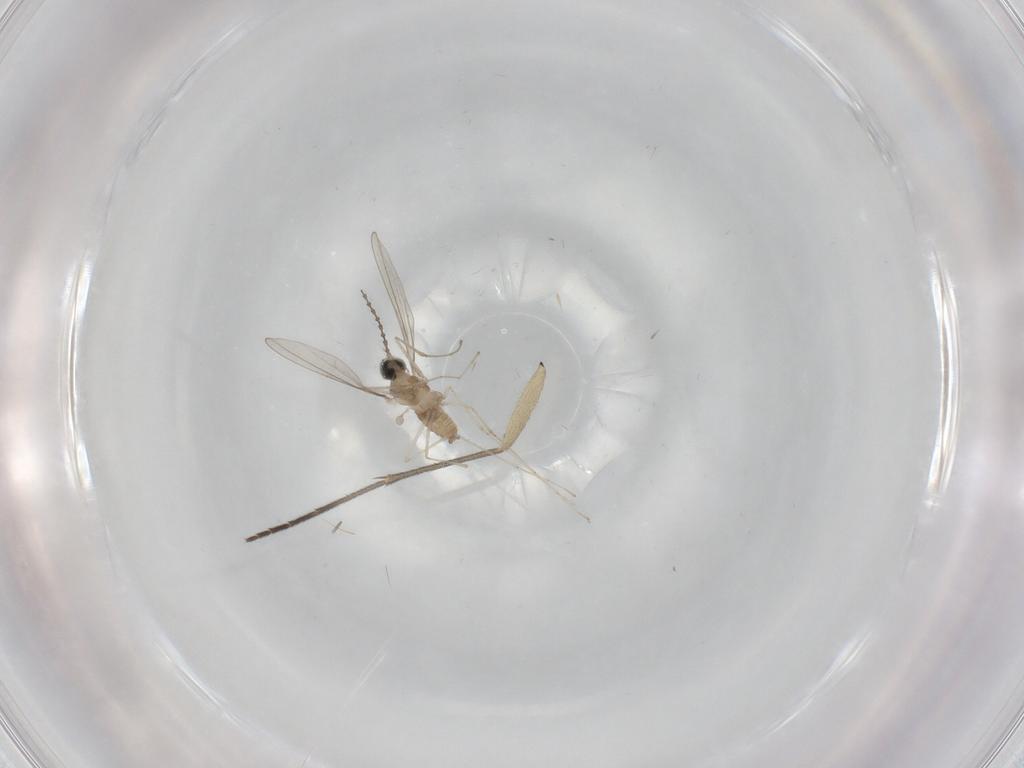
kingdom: Animalia
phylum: Arthropoda
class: Insecta
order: Diptera
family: Cecidomyiidae
